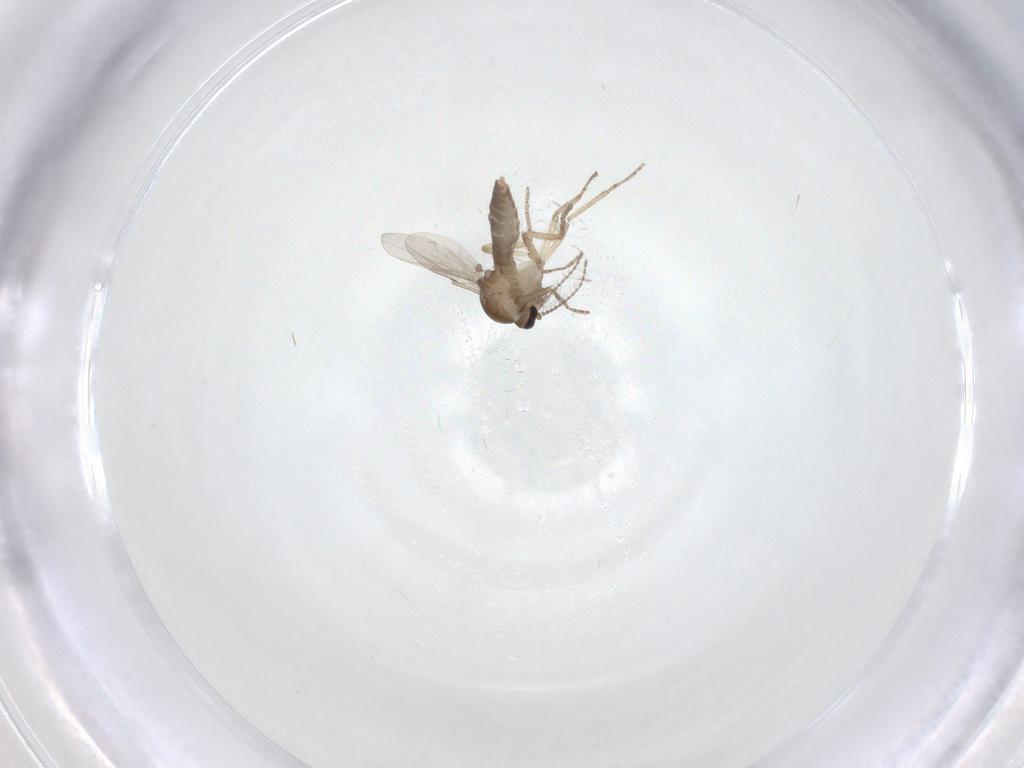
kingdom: Animalia
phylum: Arthropoda
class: Insecta
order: Diptera
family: Ceratopogonidae
